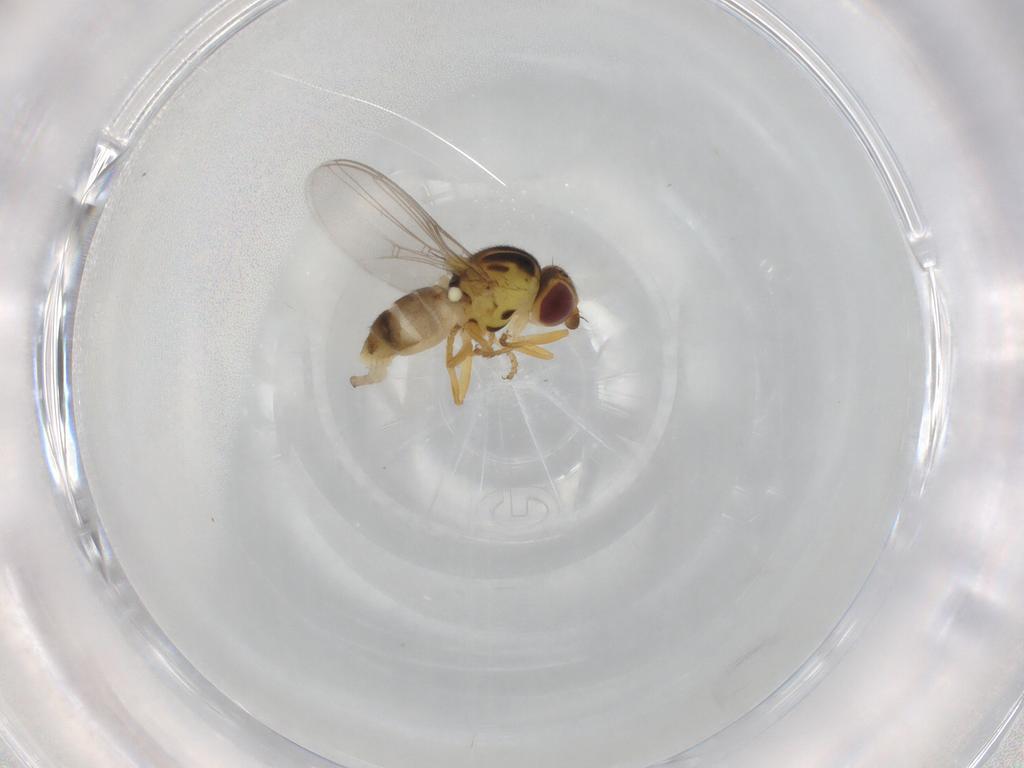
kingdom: Animalia
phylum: Arthropoda
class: Insecta
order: Diptera
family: Chloropidae
